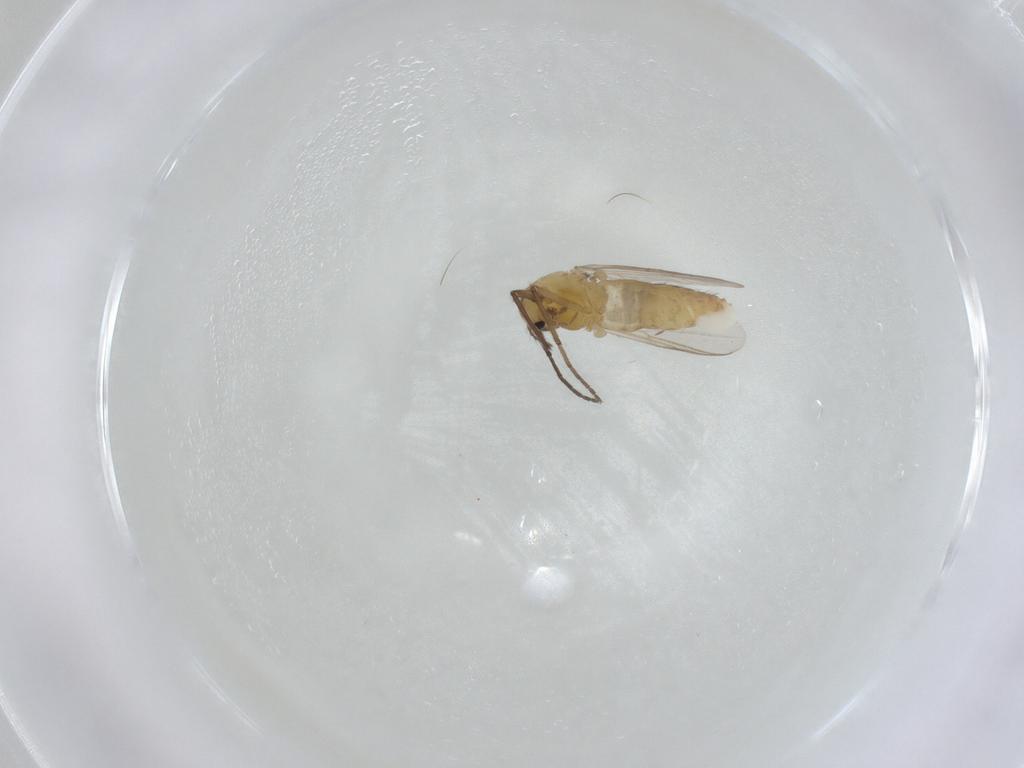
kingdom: Animalia
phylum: Arthropoda
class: Insecta
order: Diptera
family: Chironomidae
